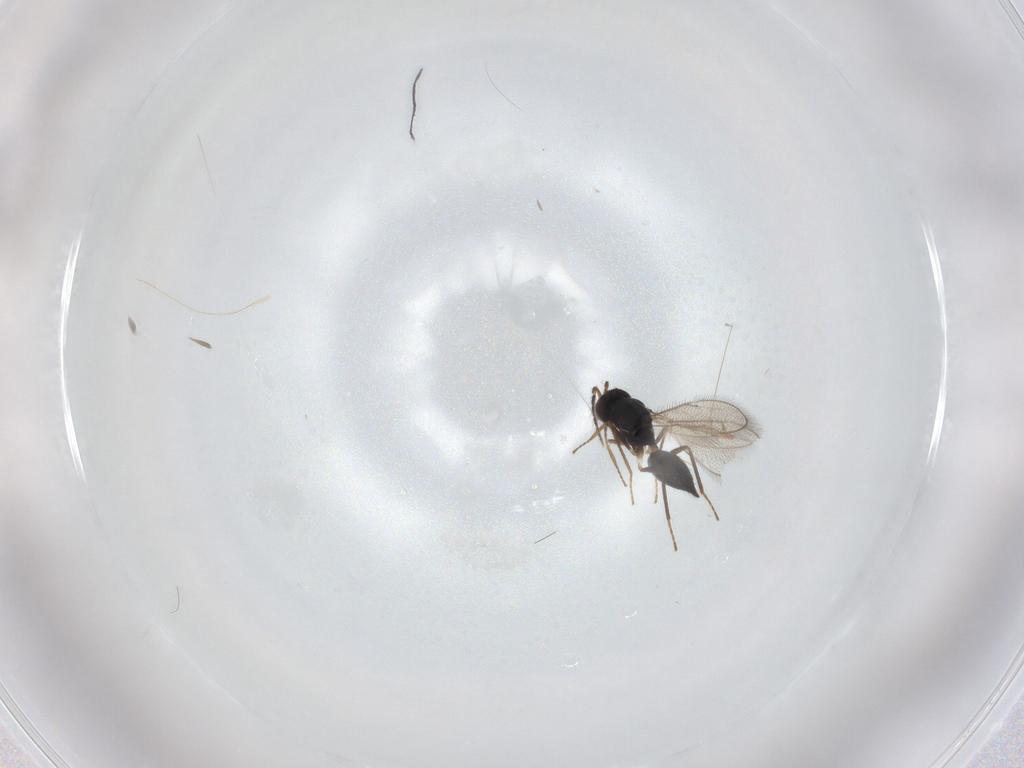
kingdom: Animalia
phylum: Arthropoda
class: Insecta
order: Hymenoptera
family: Eulophidae
